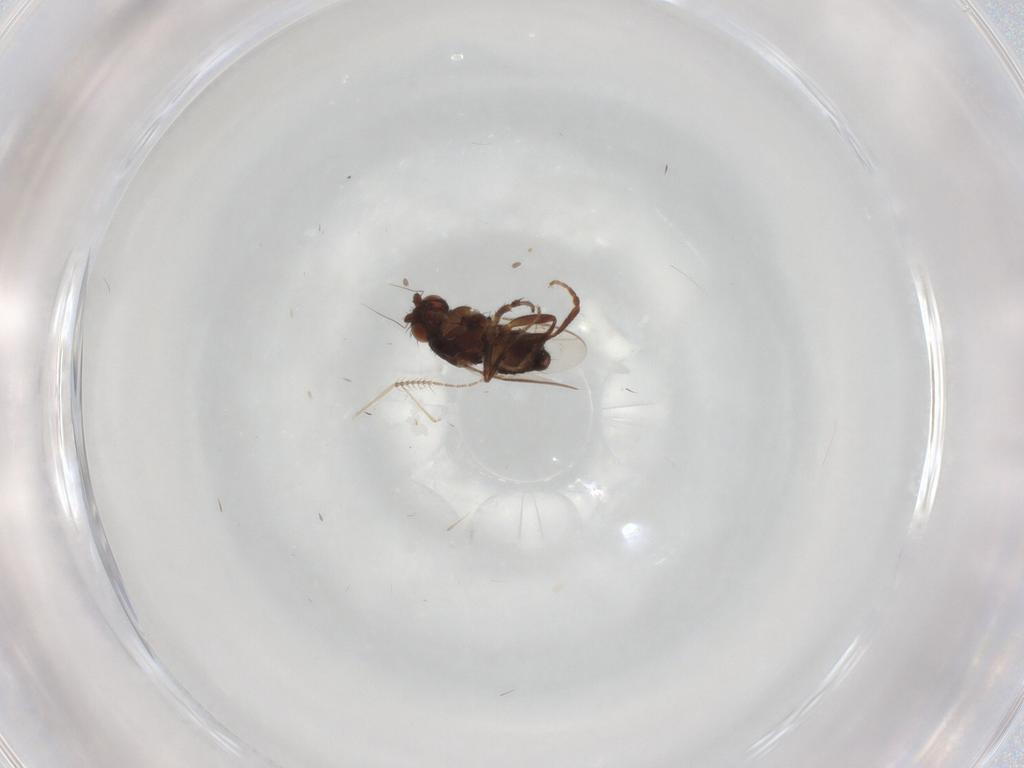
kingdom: Animalia
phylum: Arthropoda
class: Insecta
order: Diptera
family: Sphaeroceridae
